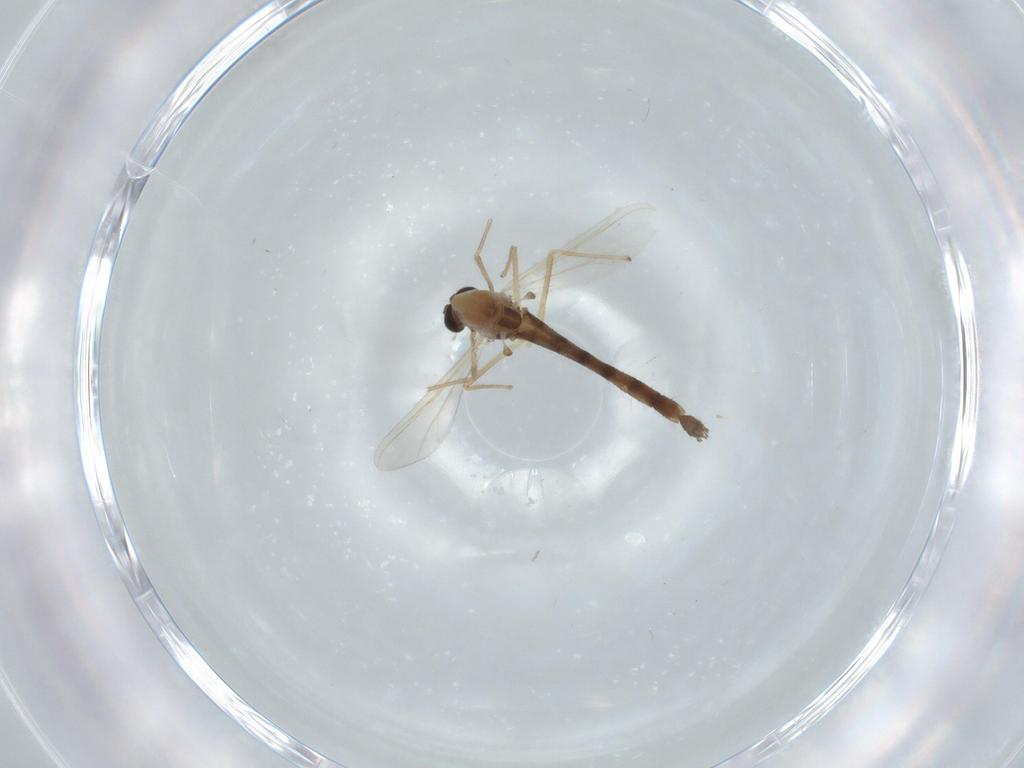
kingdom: Animalia
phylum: Arthropoda
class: Insecta
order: Diptera
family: Chironomidae
